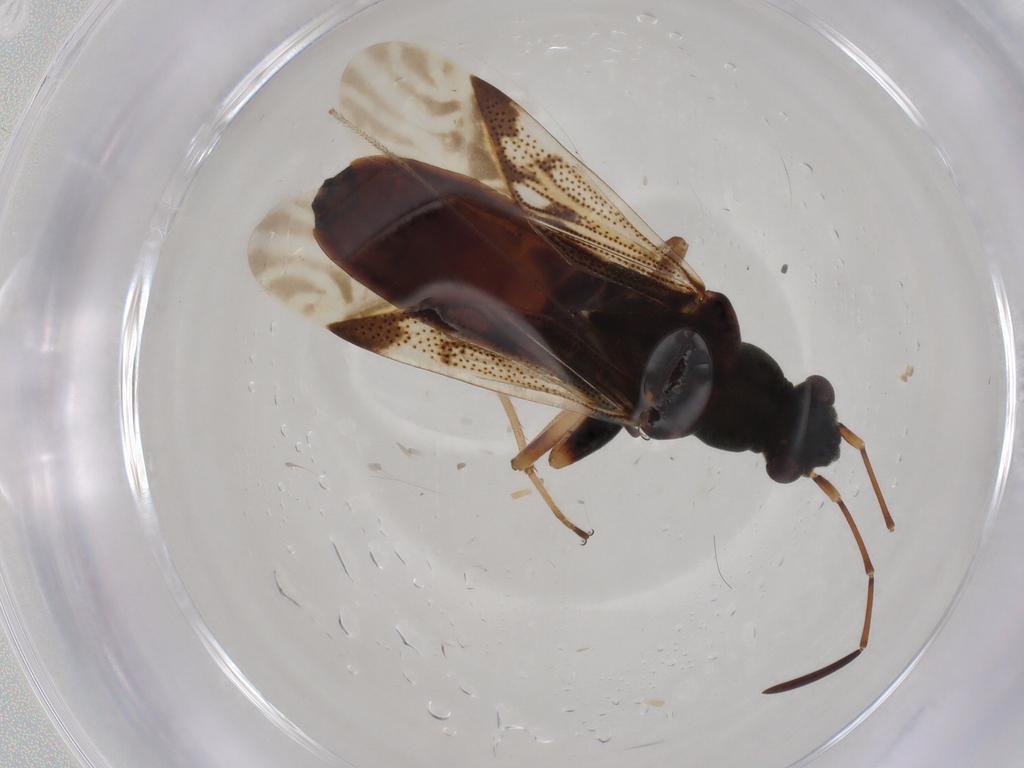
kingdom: Animalia
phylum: Arthropoda
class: Insecta
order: Hemiptera
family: Rhyparochromidae
